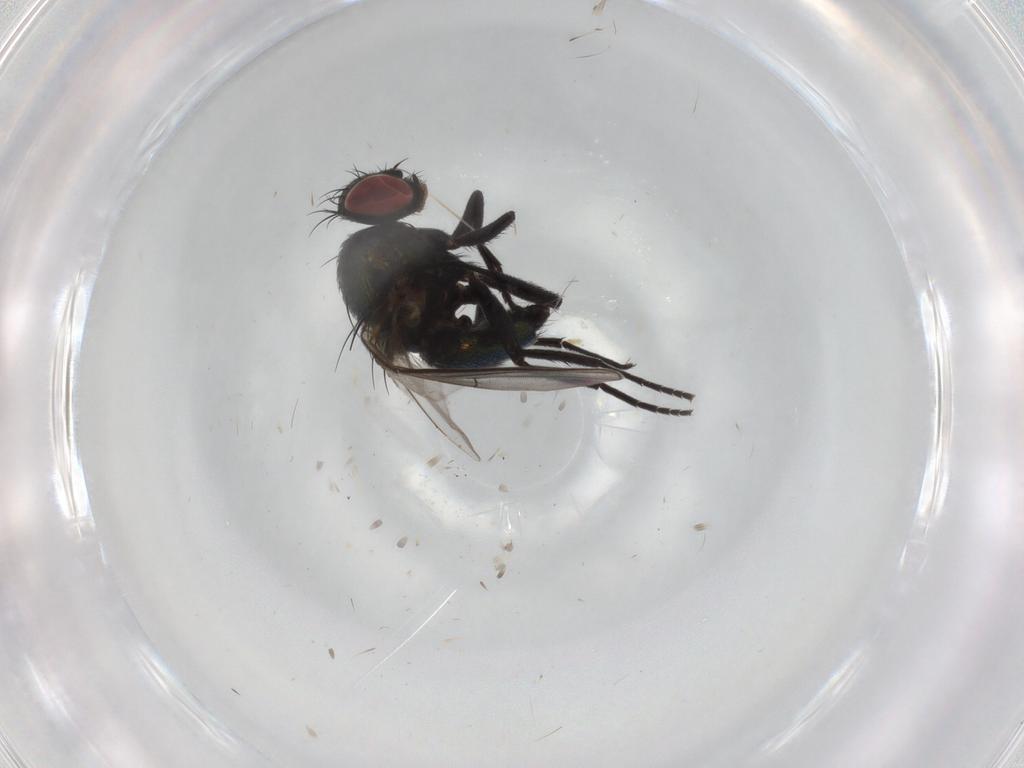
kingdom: Animalia
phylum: Arthropoda
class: Insecta
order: Diptera
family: Agromyzidae
